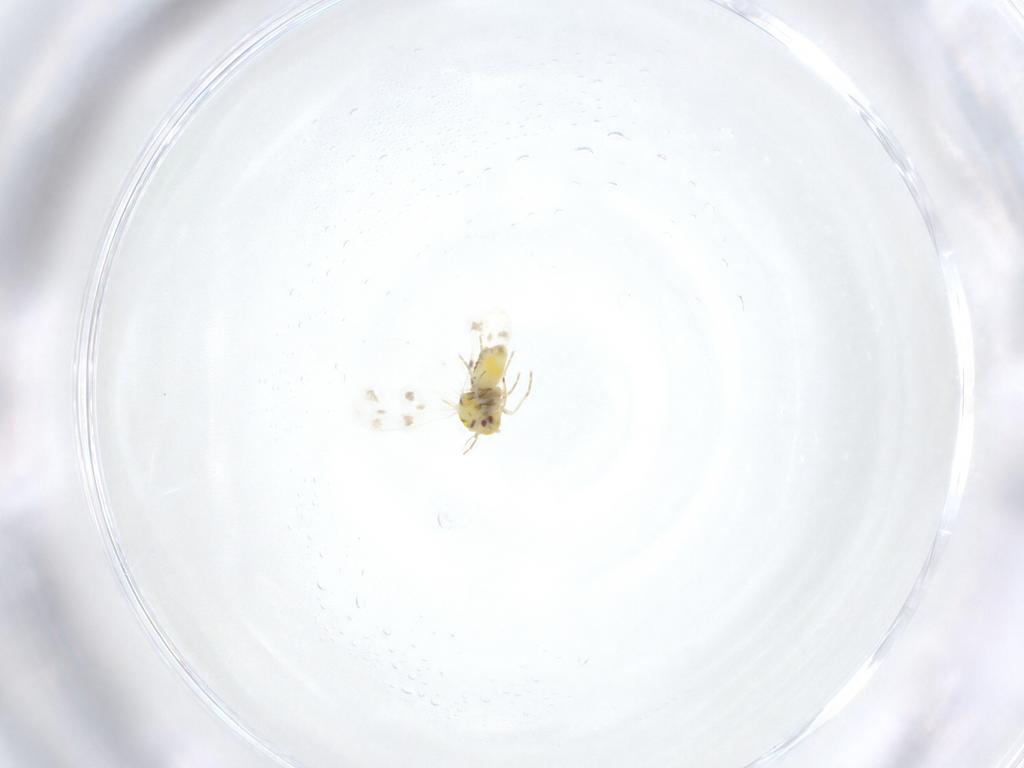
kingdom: Animalia
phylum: Arthropoda
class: Insecta
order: Hemiptera
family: Aleyrodidae
